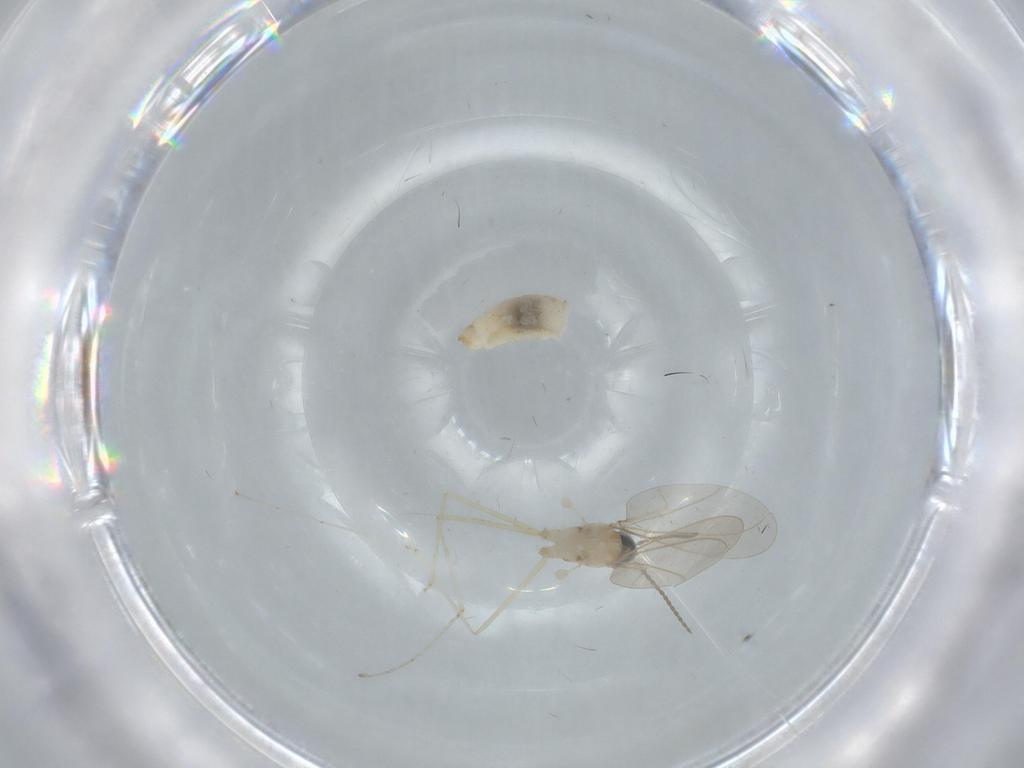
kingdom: Animalia
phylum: Arthropoda
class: Insecta
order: Diptera
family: Cecidomyiidae
